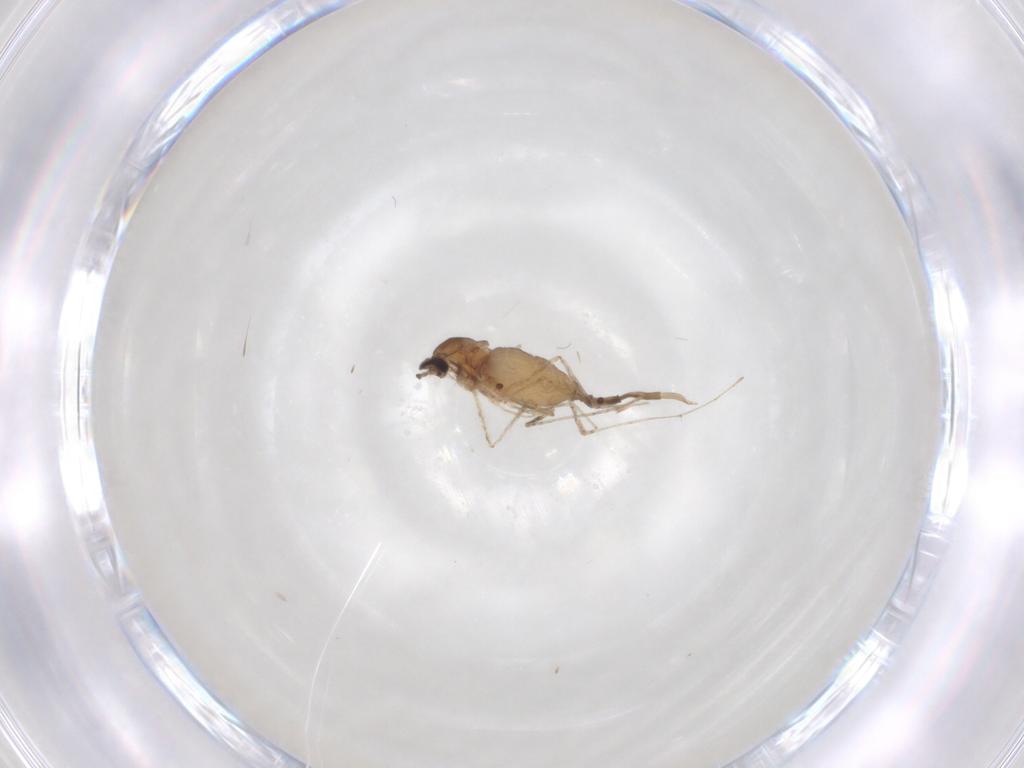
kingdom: Animalia
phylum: Arthropoda
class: Insecta
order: Diptera
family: Cecidomyiidae
